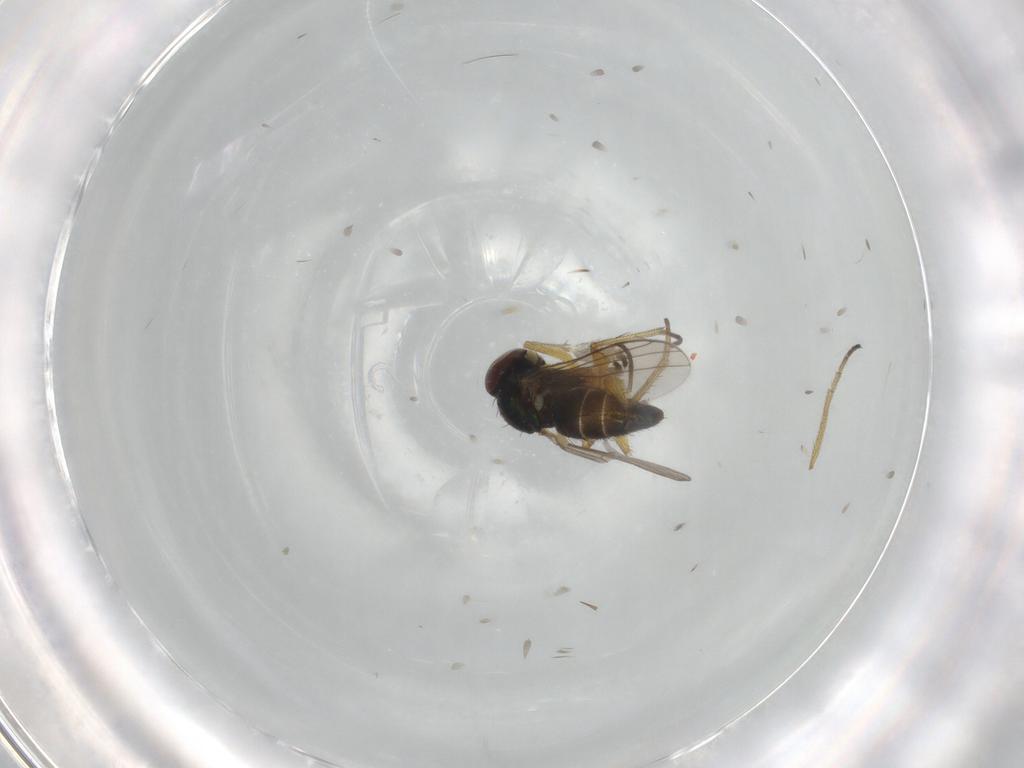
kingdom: Animalia
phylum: Arthropoda
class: Insecta
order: Diptera
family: Dolichopodidae
